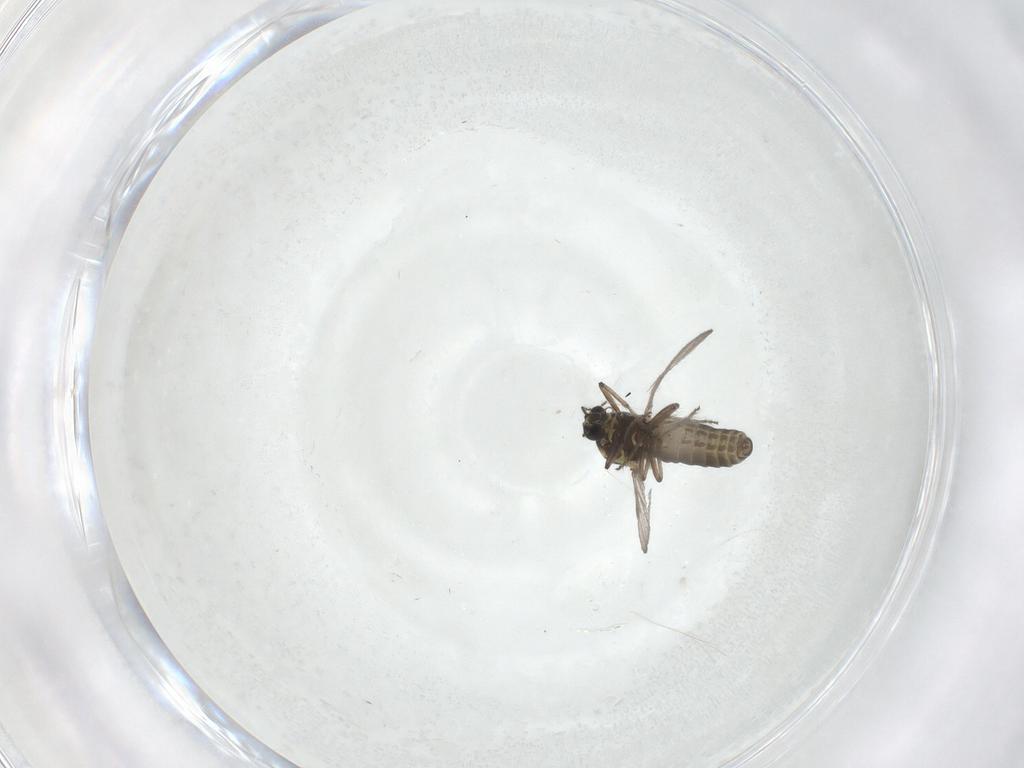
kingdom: Animalia
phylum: Arthropoda
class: Insecta
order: Diptera
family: Ceratopogonidae
